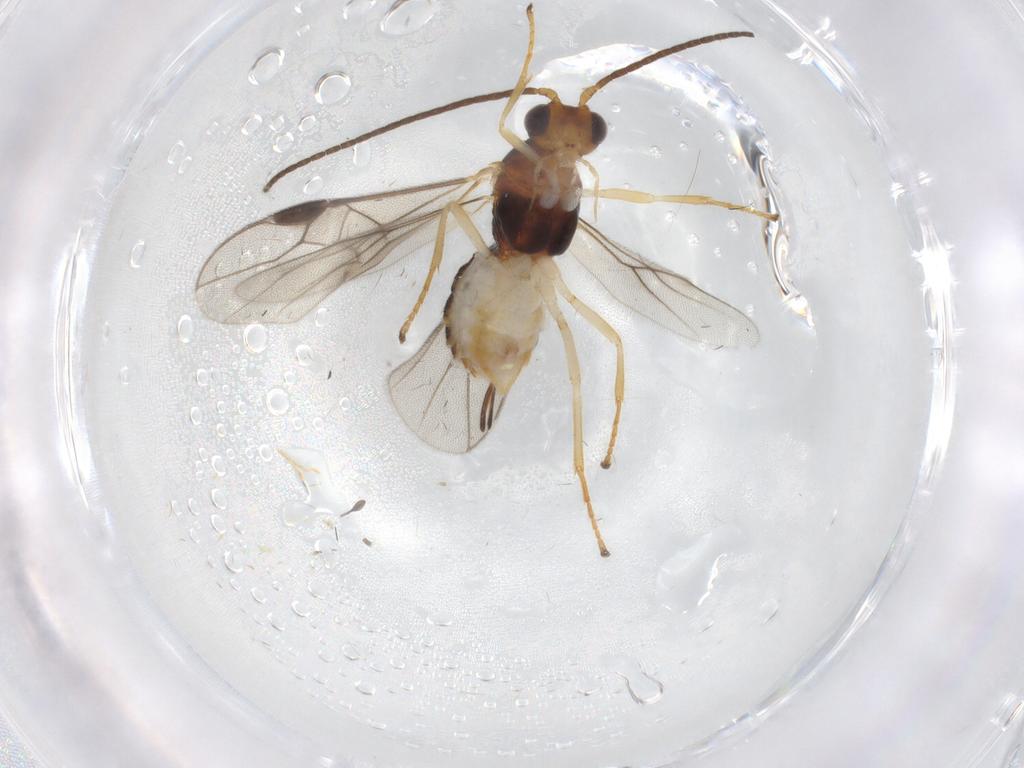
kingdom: Animalia
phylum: Arthropoda
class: Insecta
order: Hymenoptera
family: Braconidae
